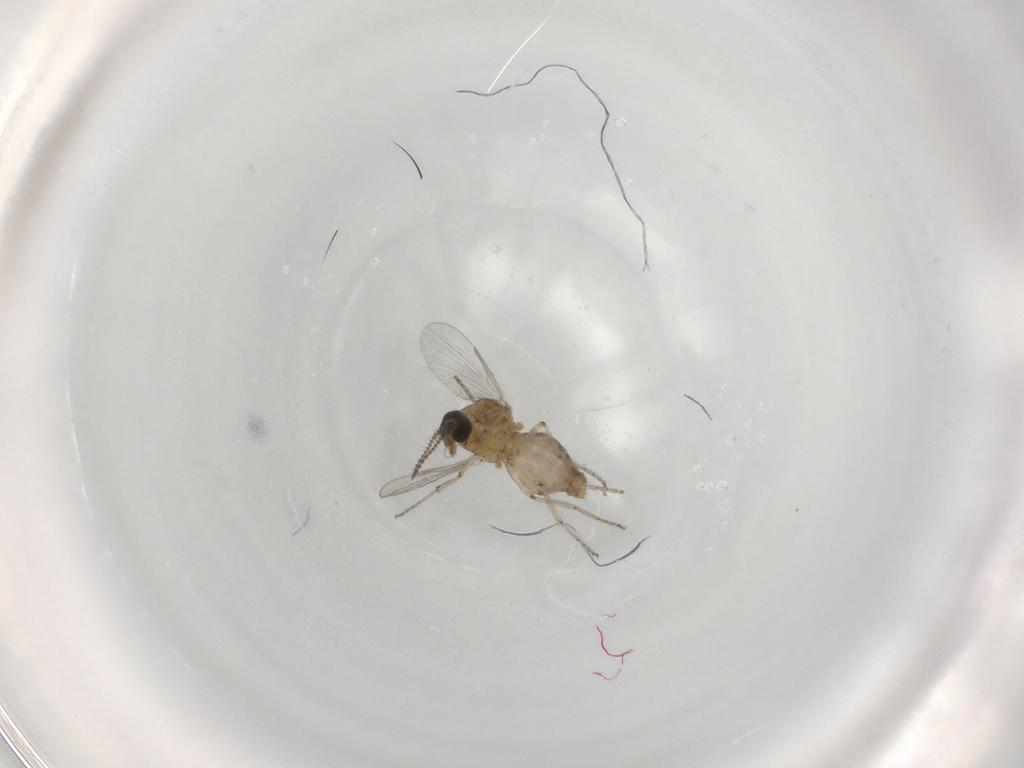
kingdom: Animalia
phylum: Arthropoda
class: Insecta
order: Diptera
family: Ceratopogonidae
